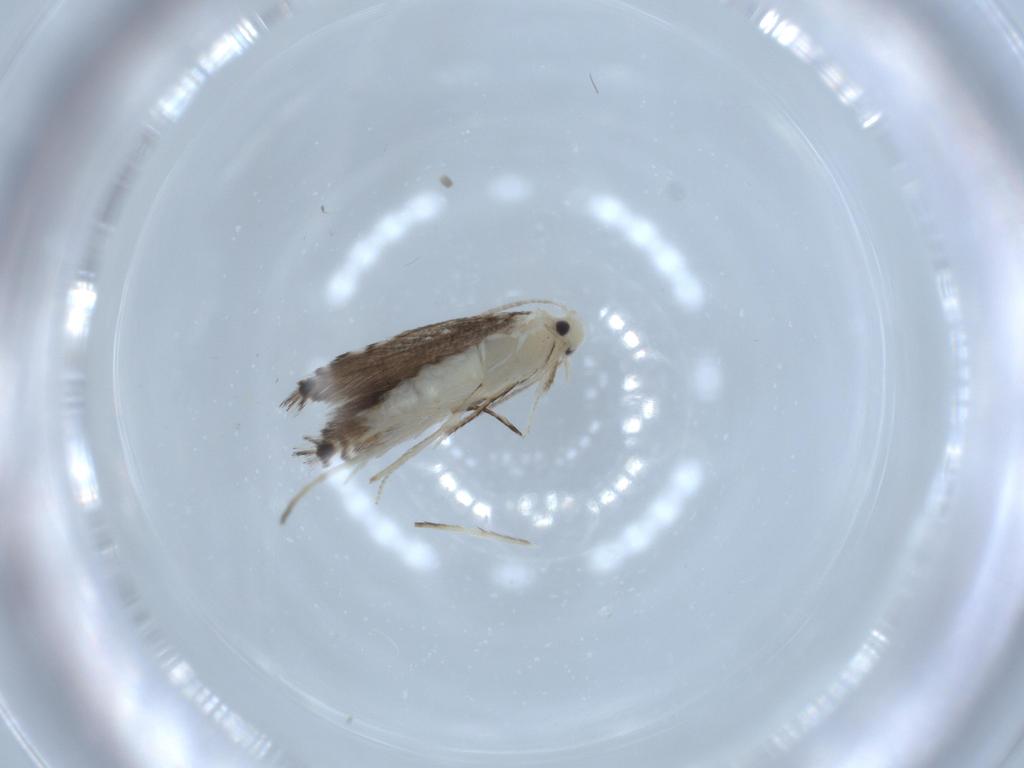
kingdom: Animalia
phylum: Arthropoda
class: Insecta
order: Lepidoptera
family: Gracillariidae
